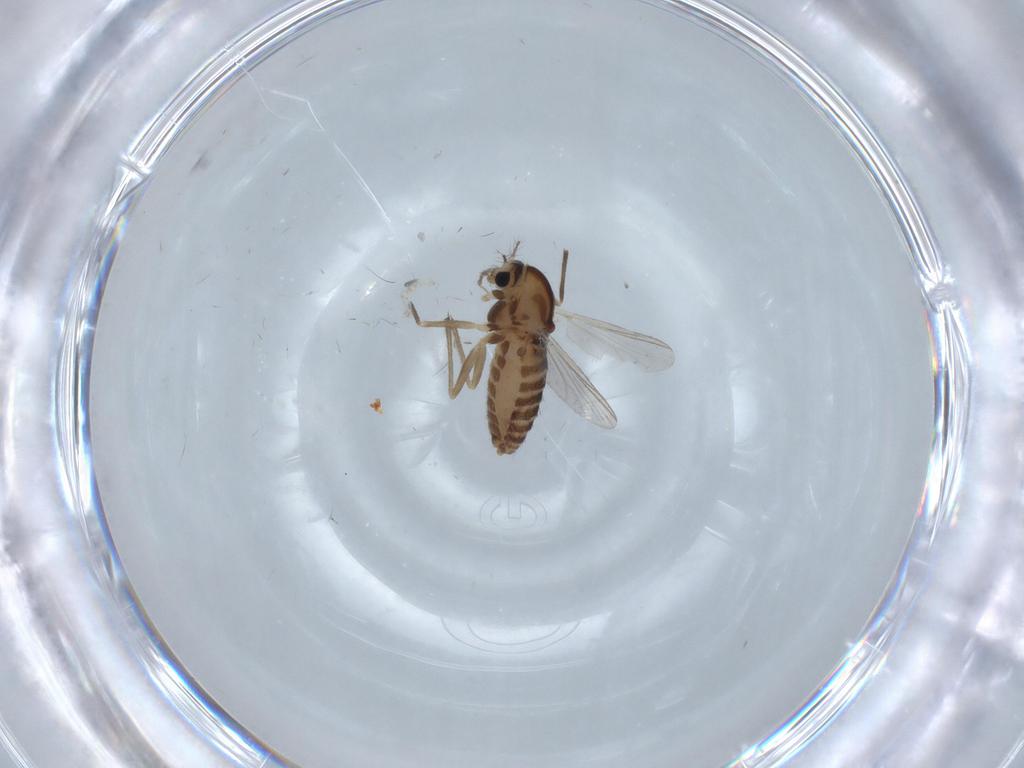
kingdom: Animalia
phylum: Arthropoda
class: Insecta
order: Diptera
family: Chironomidae
